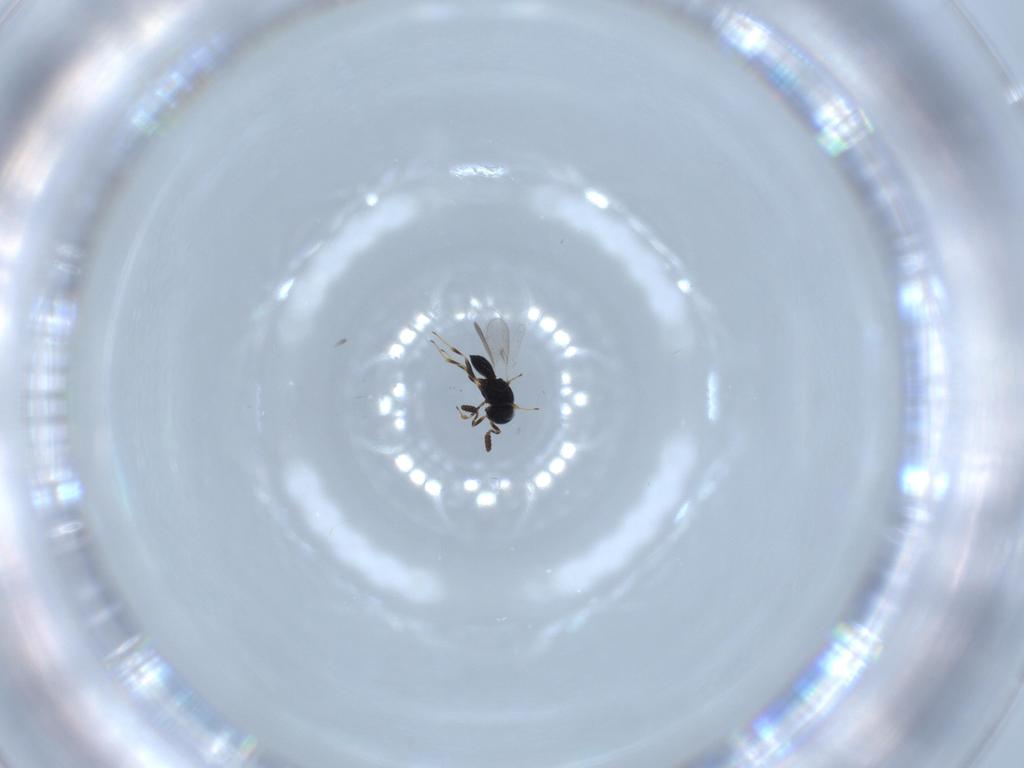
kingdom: Animalia
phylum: Arthropoda
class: Insecta
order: Hymenoptera
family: Scelionidae
